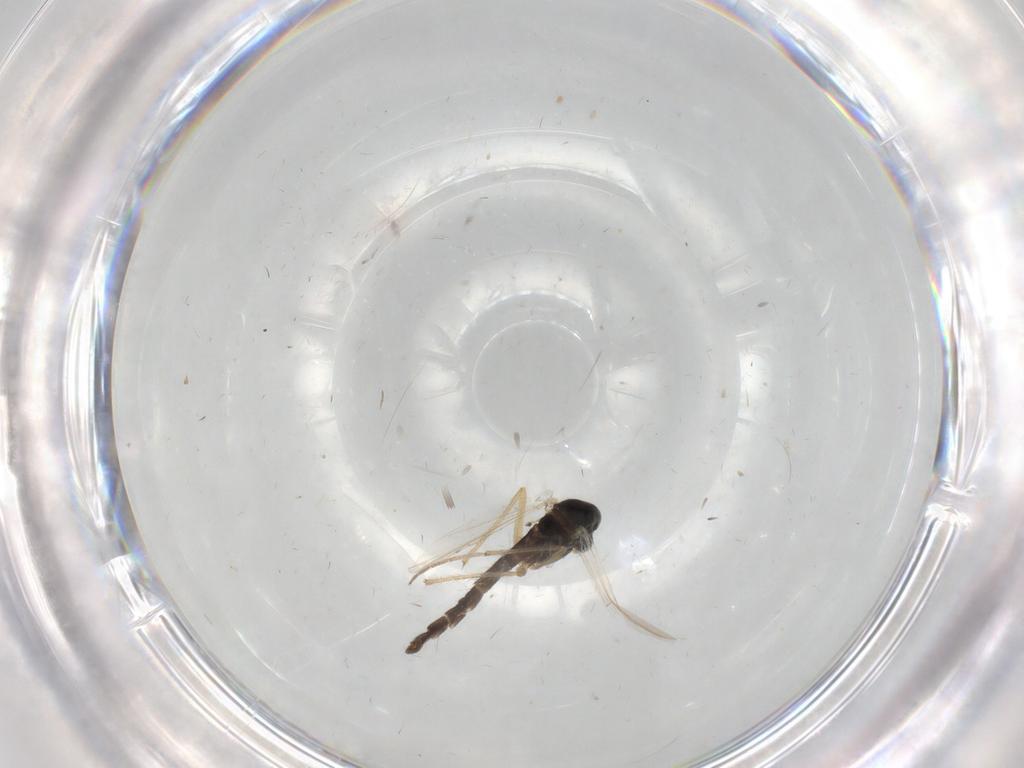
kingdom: Animalia
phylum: Arthropoda
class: Insecta
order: Diptera
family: Chironomidae
